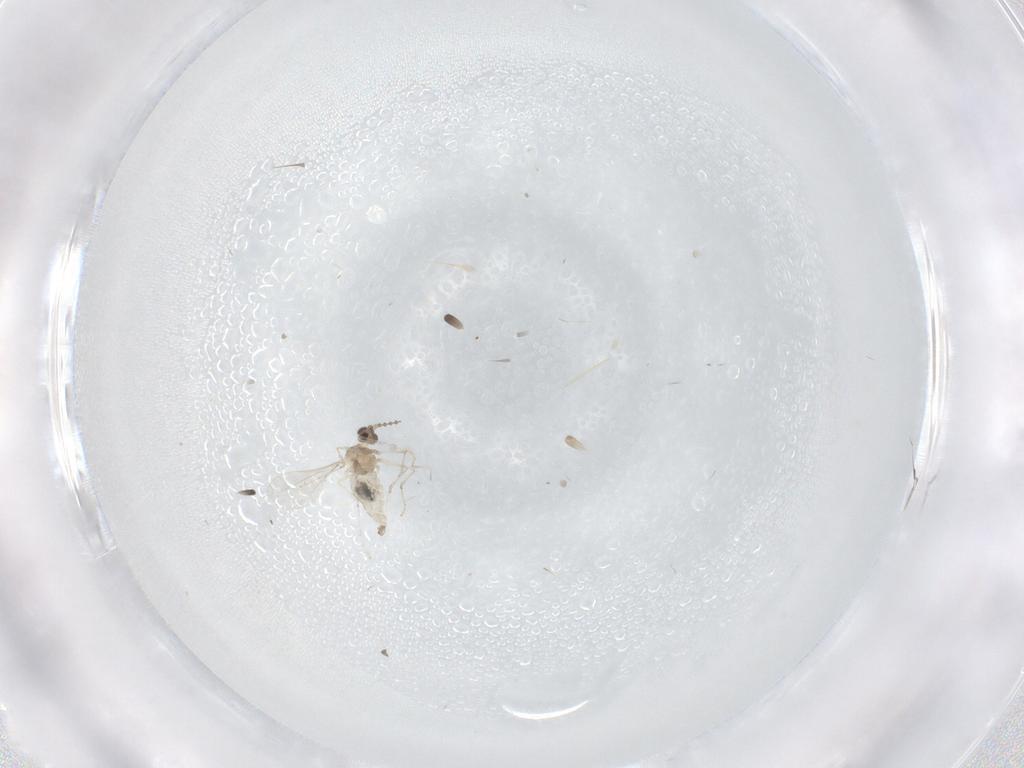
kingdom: Animalia
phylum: Arthropoda
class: Insecta
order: Diptera
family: Cecidomyiidae
